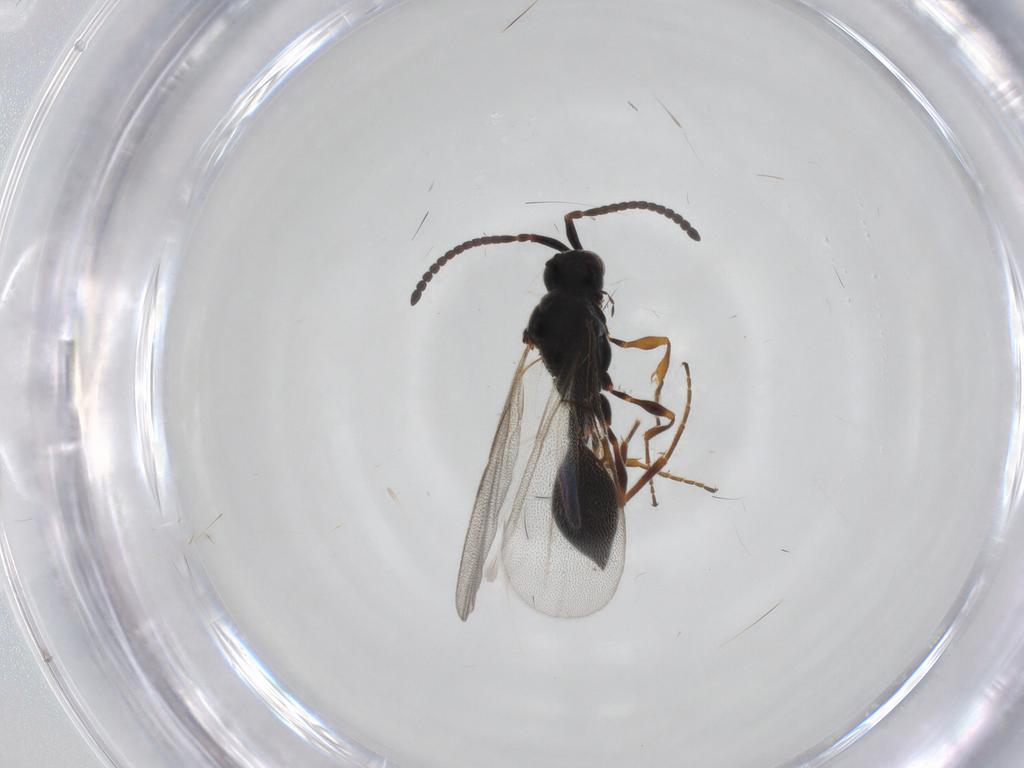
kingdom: Animalia
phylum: Arthropoda
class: Insecta
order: Hymenoptera
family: Diapriidae
